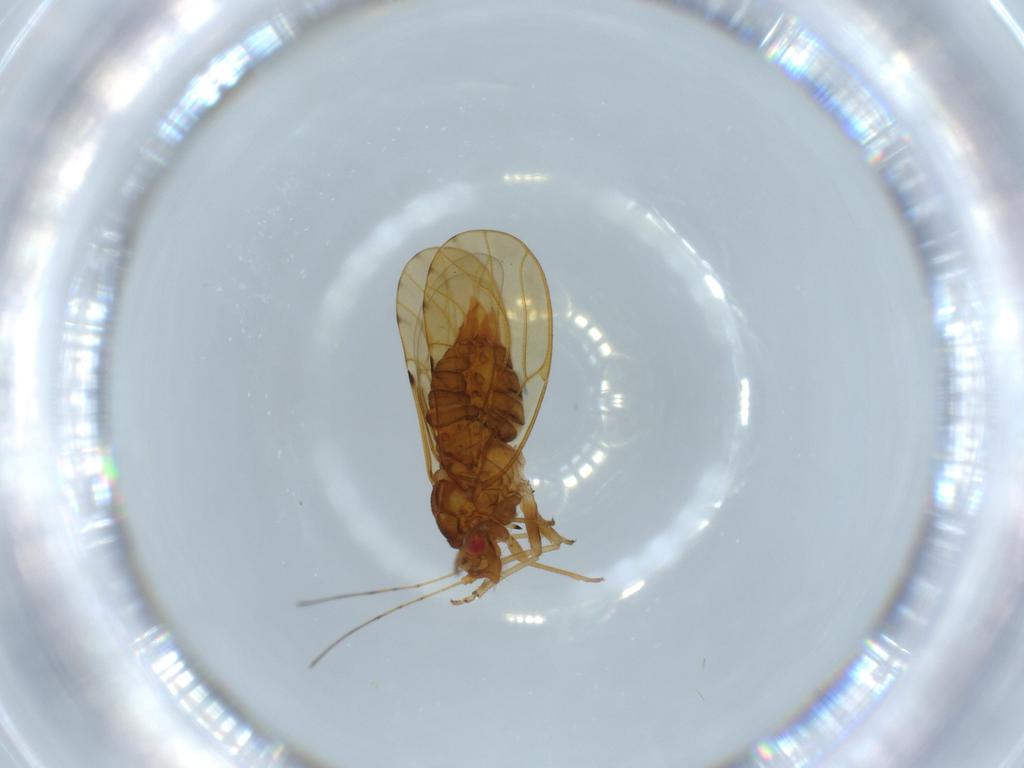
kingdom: Animalia
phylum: Arthropoda
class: Insecta
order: Hemiptera
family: Psylloidea_incertae_sedis
